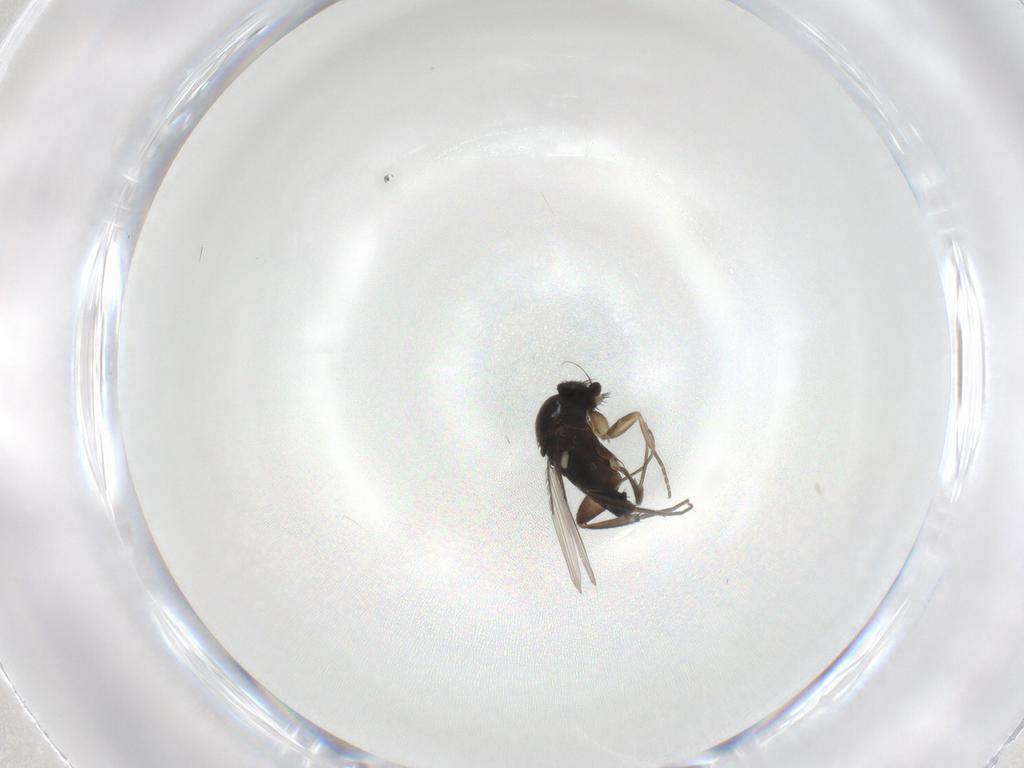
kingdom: Animalia
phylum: Arthropoda
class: Insecta
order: Diptera
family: Phoridae
